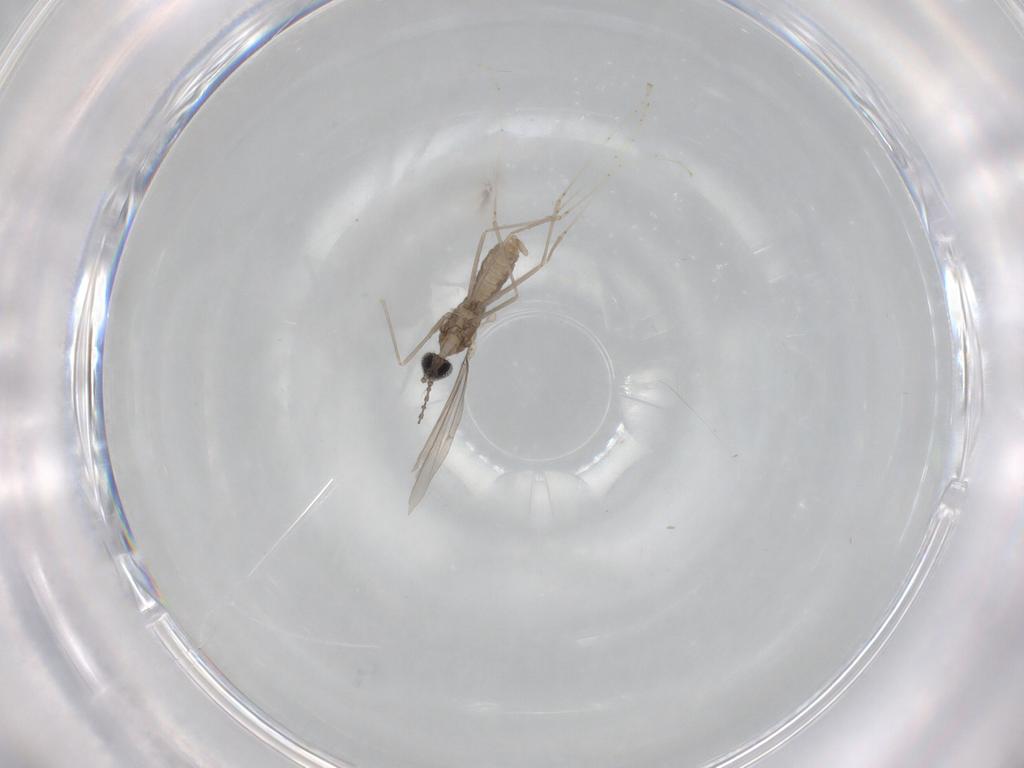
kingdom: Animalia
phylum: Arthropoda
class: Insecta
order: Diptera
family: Cecidomyiidae
